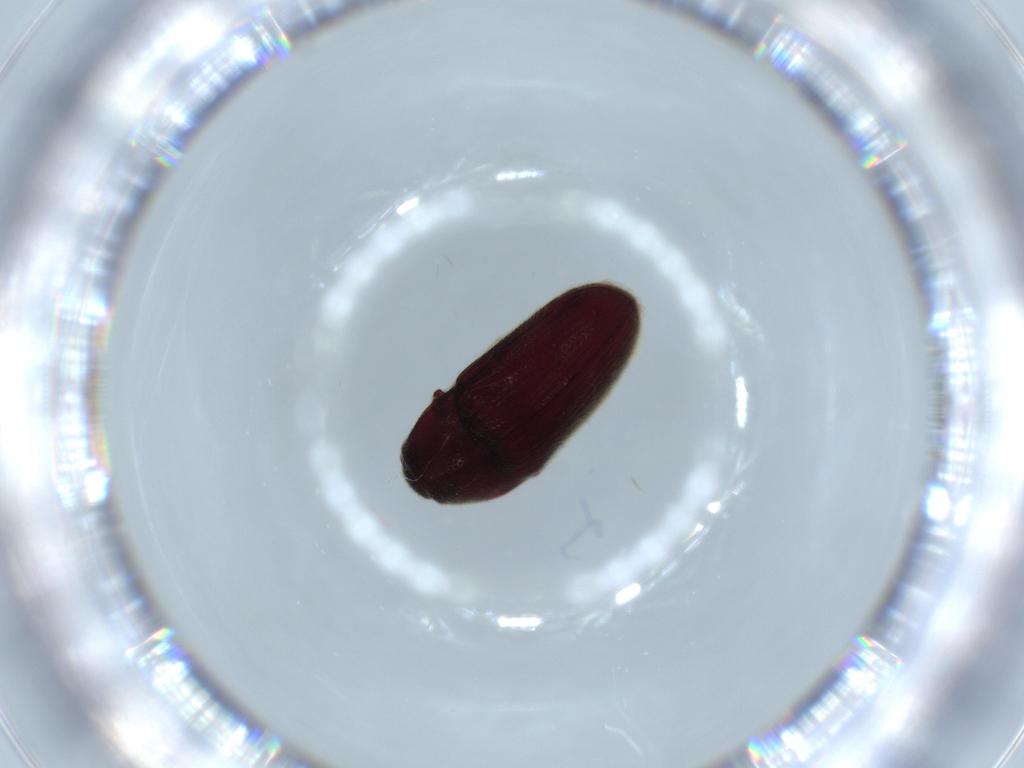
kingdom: Animalia
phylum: Arthropoda
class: Insecta
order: Coleoptera
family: Throscidae
